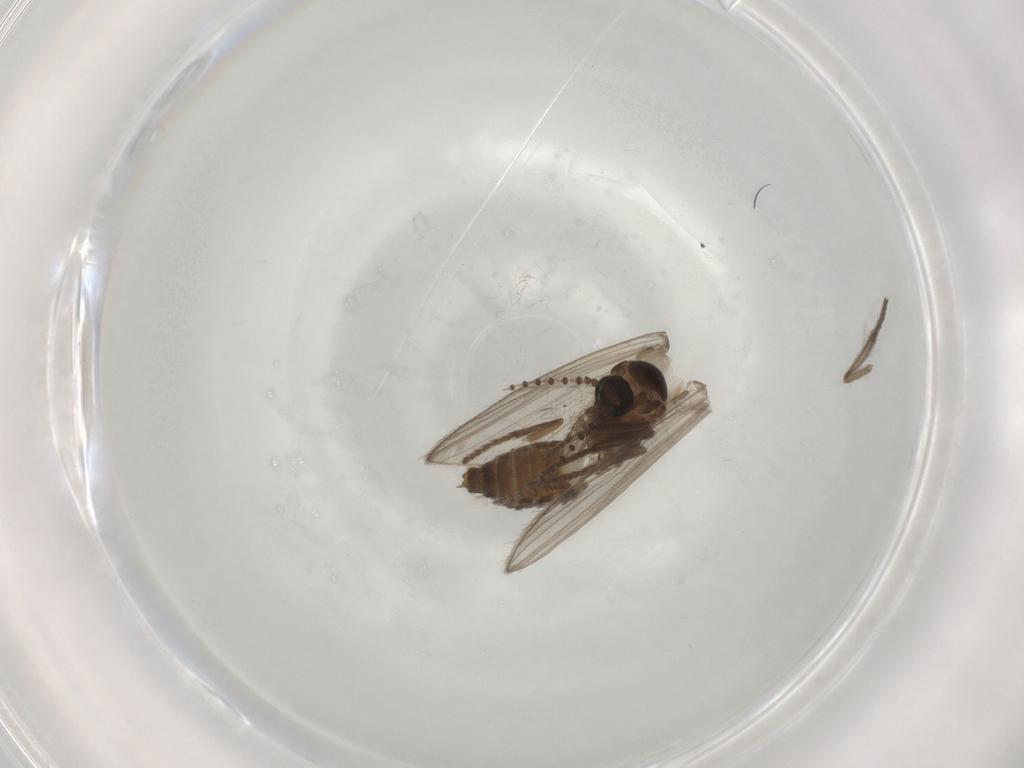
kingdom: Animalia
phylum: Arthropoda
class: Insecta
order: Diptera
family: Psychodidae
